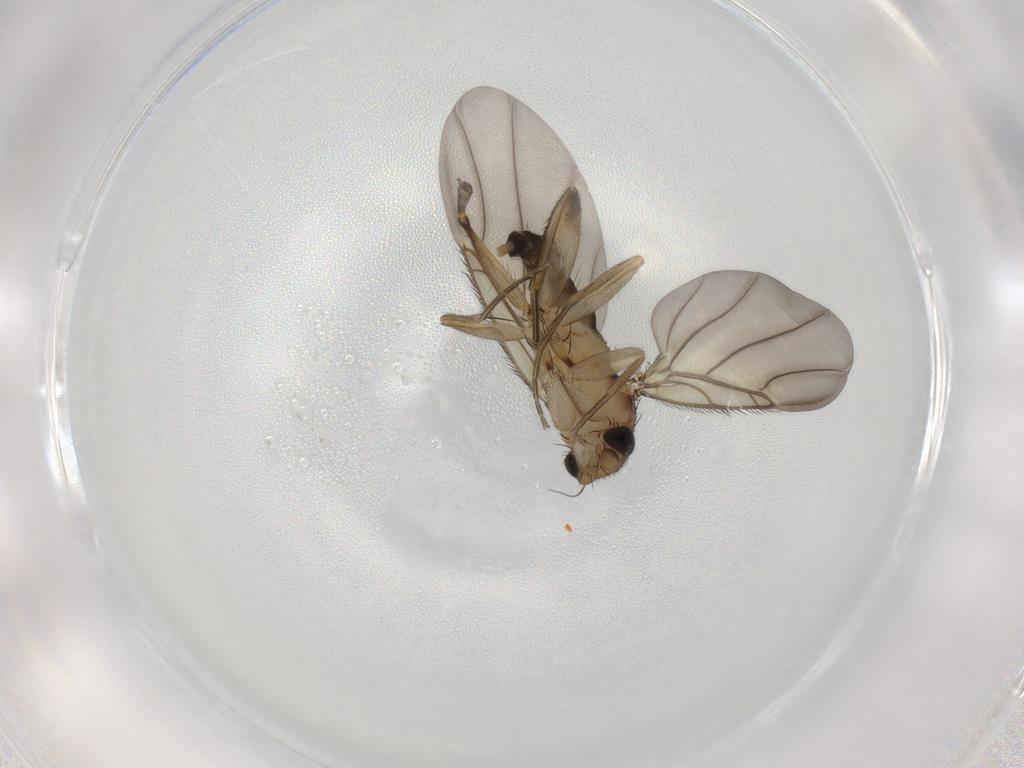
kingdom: Animalia
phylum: Arthropoda
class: Insecta
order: Diptera
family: Phoridae
